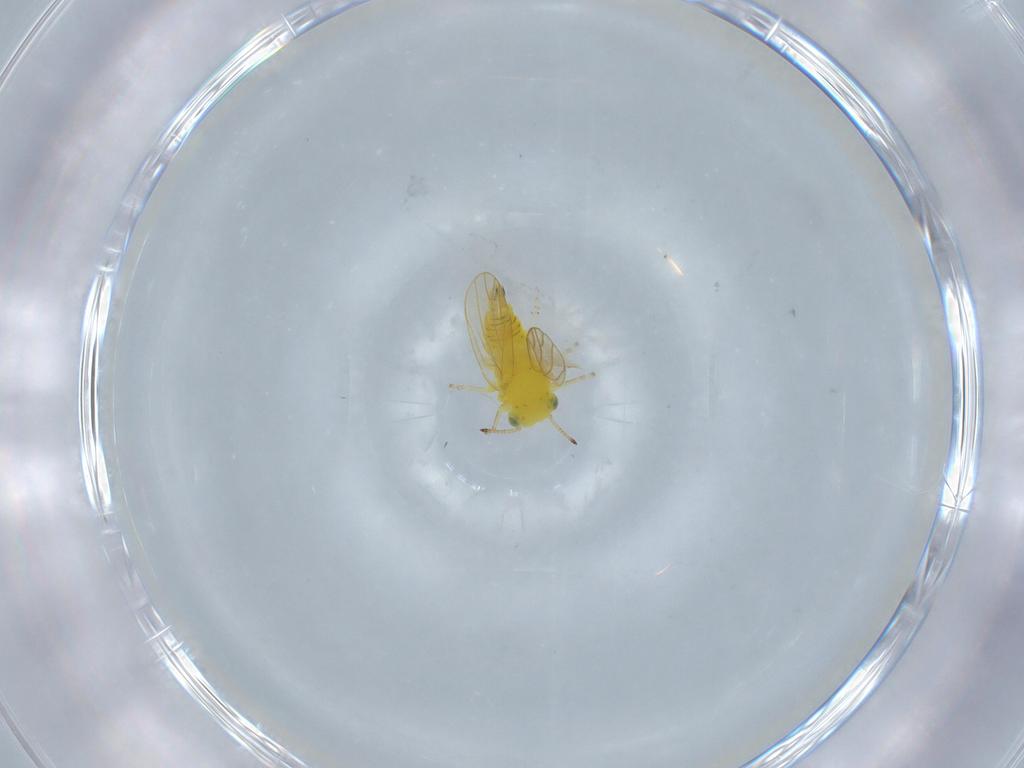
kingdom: Animalia
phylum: Arthropoda
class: Insecta
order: Hemiptera
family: Aphalaridae
